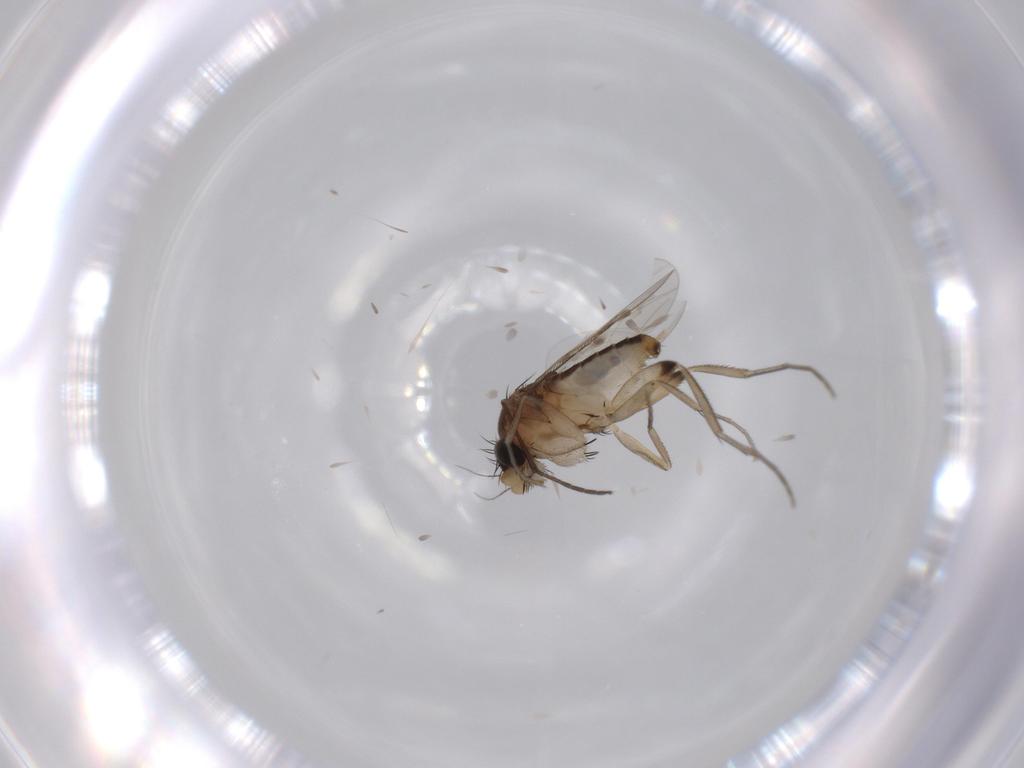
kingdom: Animalia
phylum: Arthropoda
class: Insecta
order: Diptera
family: Phoridae
